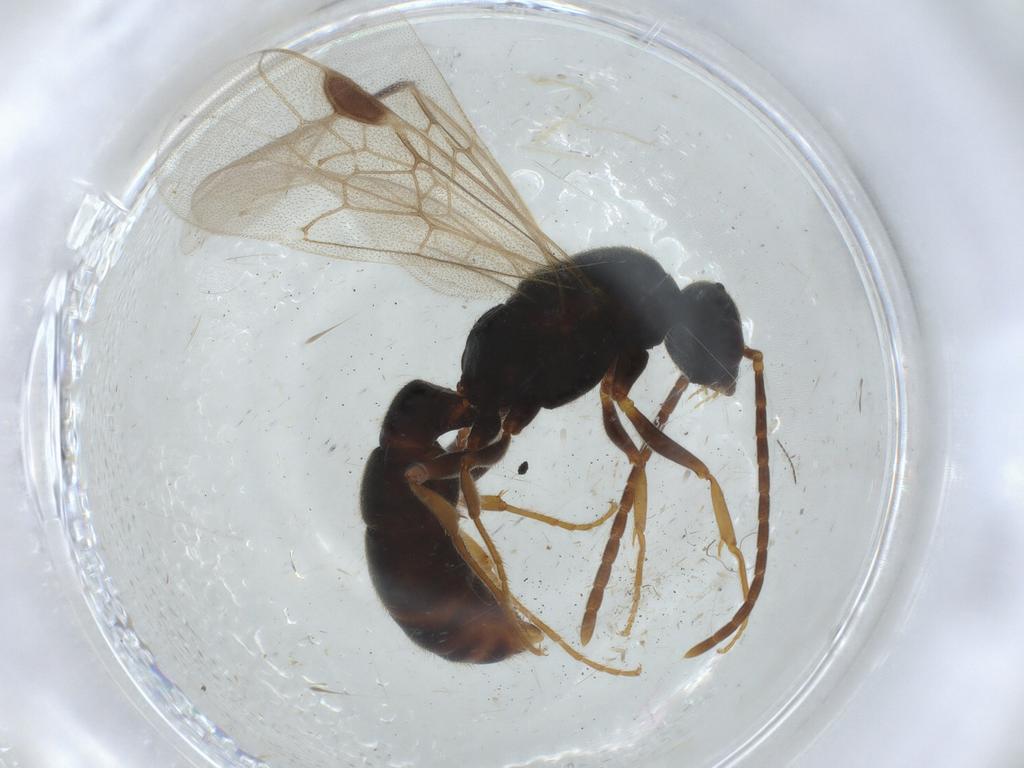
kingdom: Animalia
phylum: Arthropoda
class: Insecta
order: Hymenoptera
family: Formicidae
